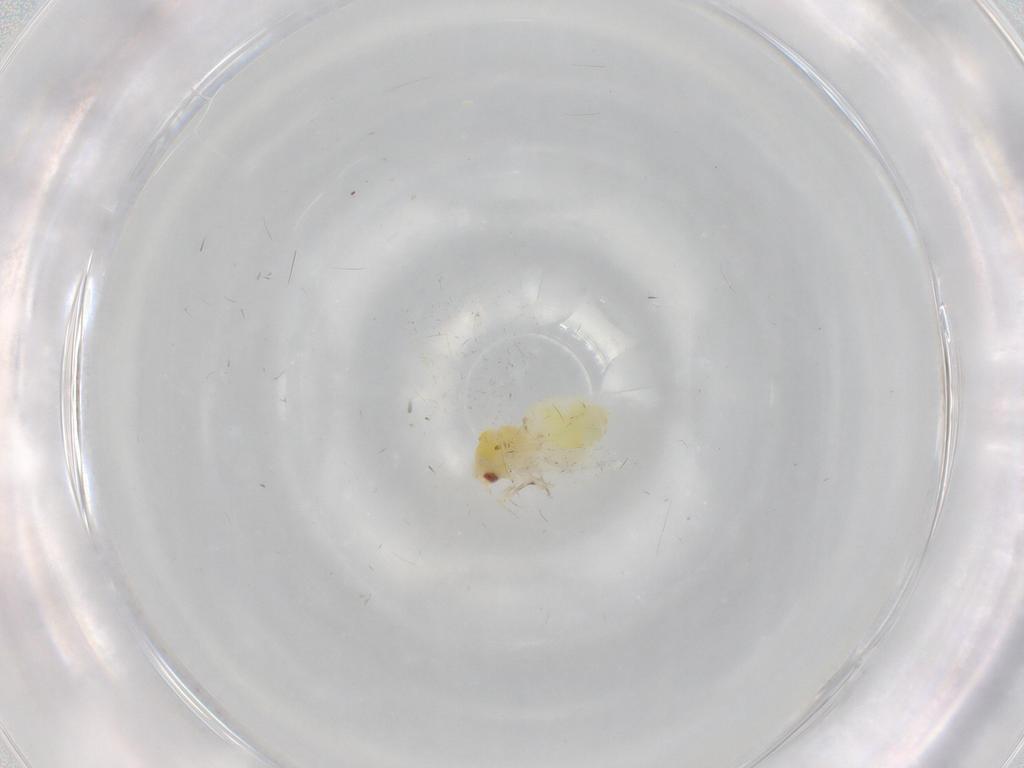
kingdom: Animalia
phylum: Arthropoda
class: Insecta
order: Hemiptera
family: Aleyrodidae
